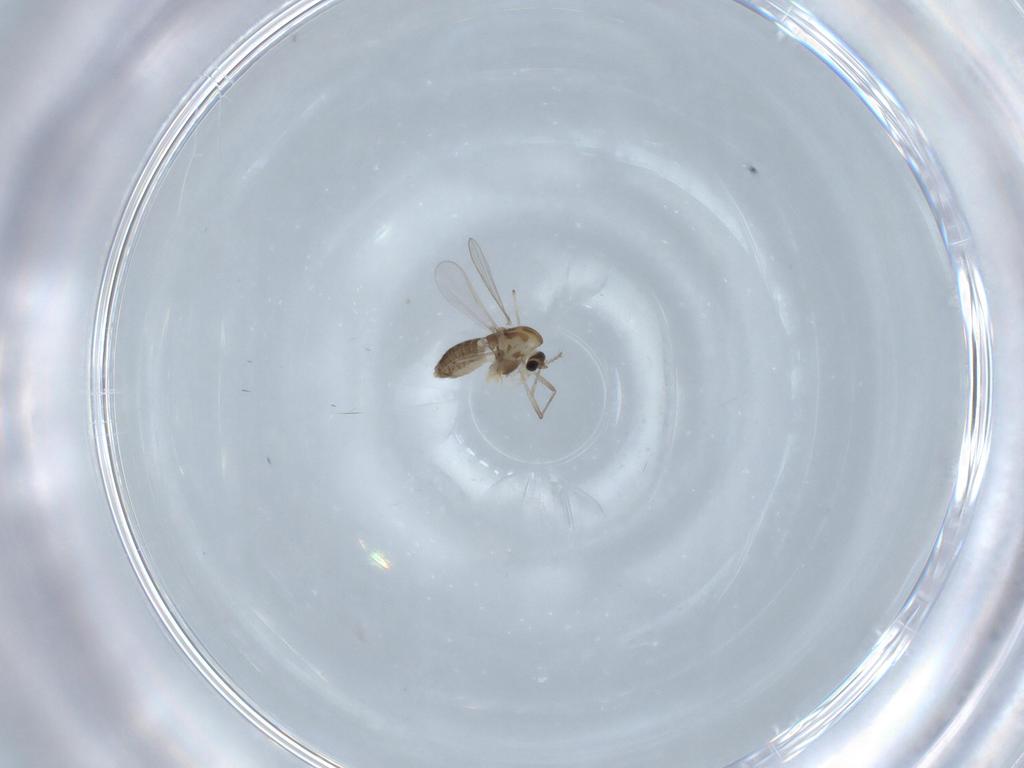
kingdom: Animalia
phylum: Arthropoda
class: Insecta
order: Diptera
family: Chironomidae
